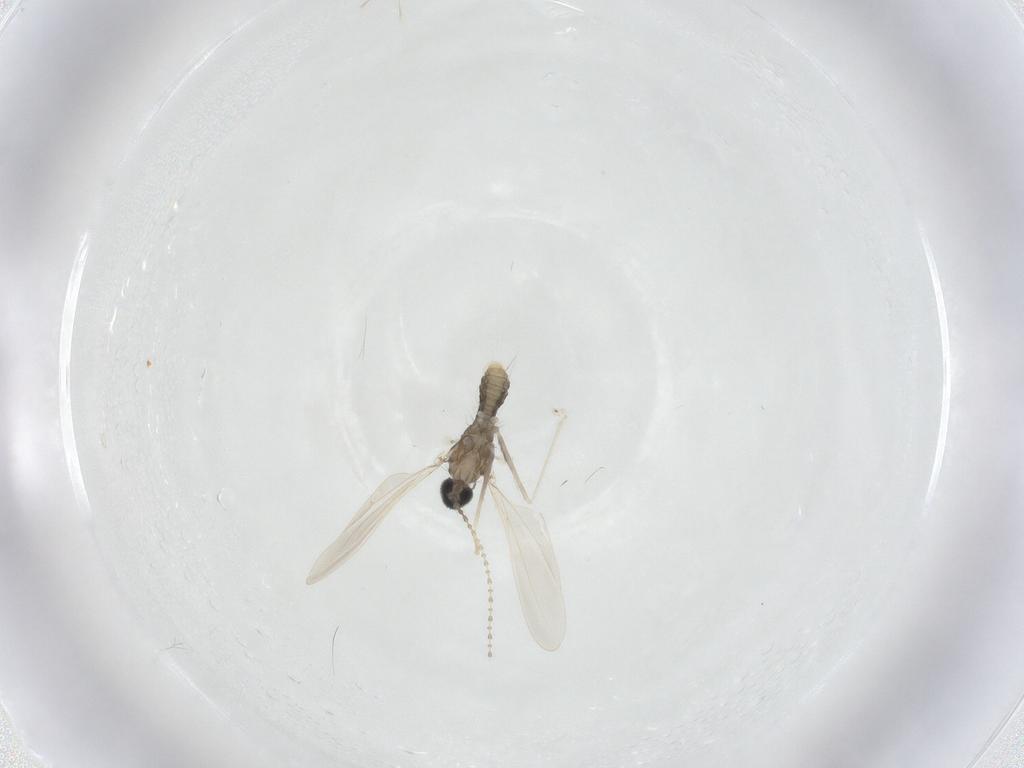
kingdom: Animalia
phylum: Arthropoda
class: Insecta
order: Diptera
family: Cecidomyiidae
